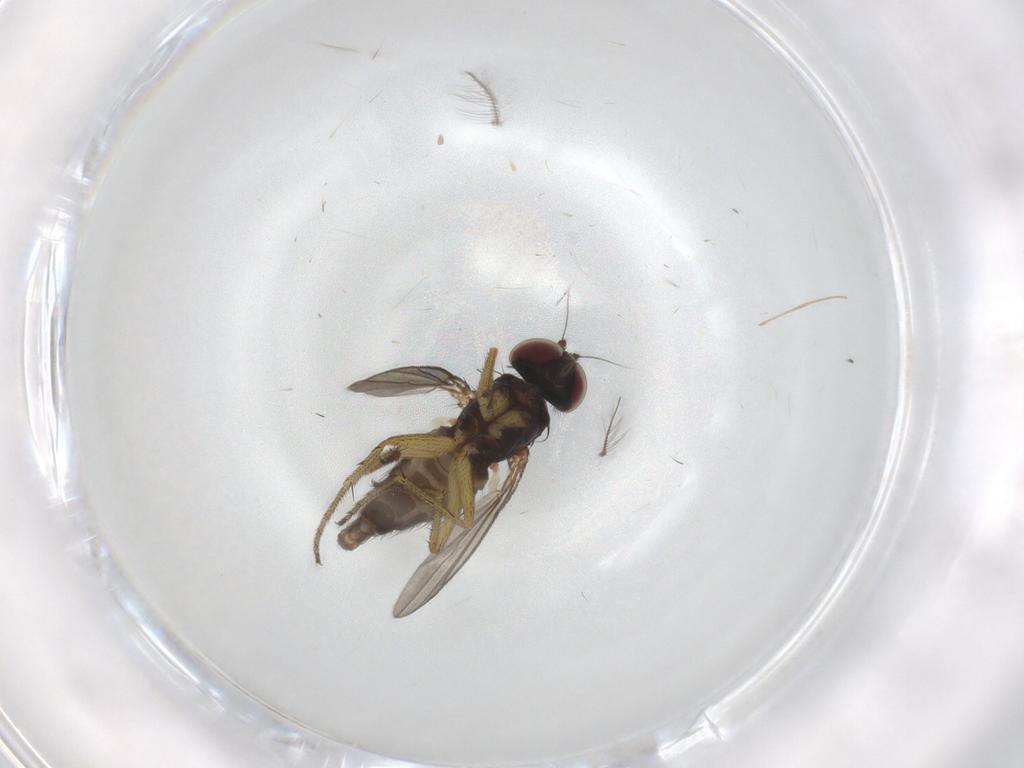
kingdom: Animalia
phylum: Arthropoda
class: Insecta
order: Diptera
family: Chironomidae
